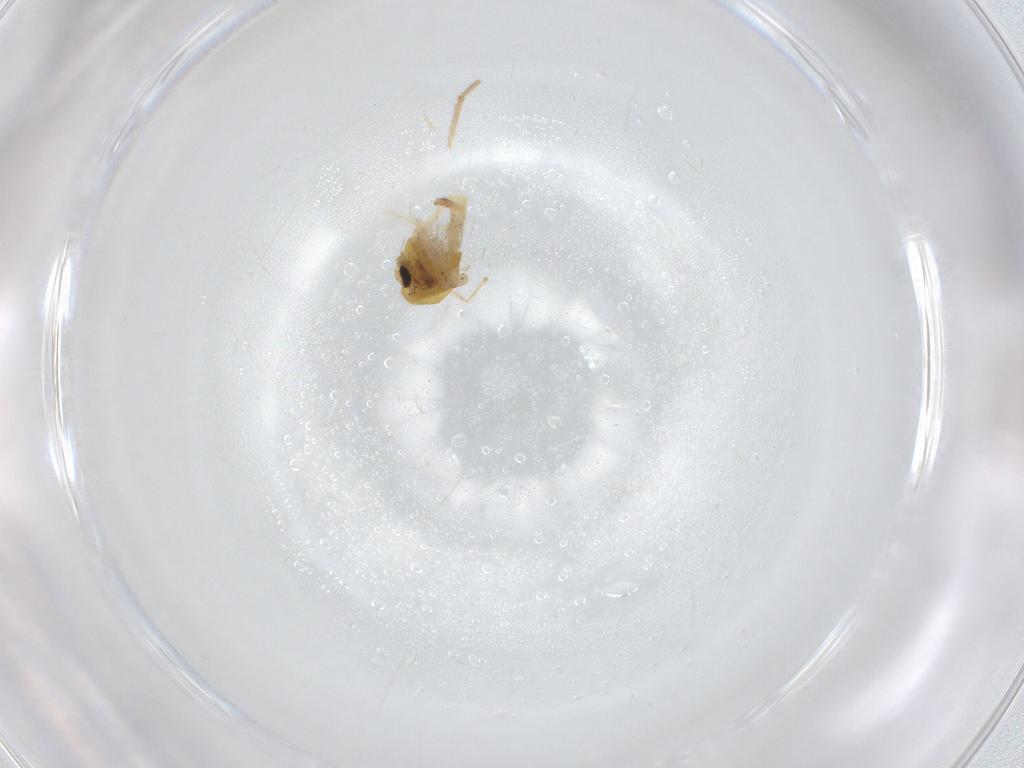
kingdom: Animalia
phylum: Arthropoda
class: Insecta
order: Diptera
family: Chironomidae
